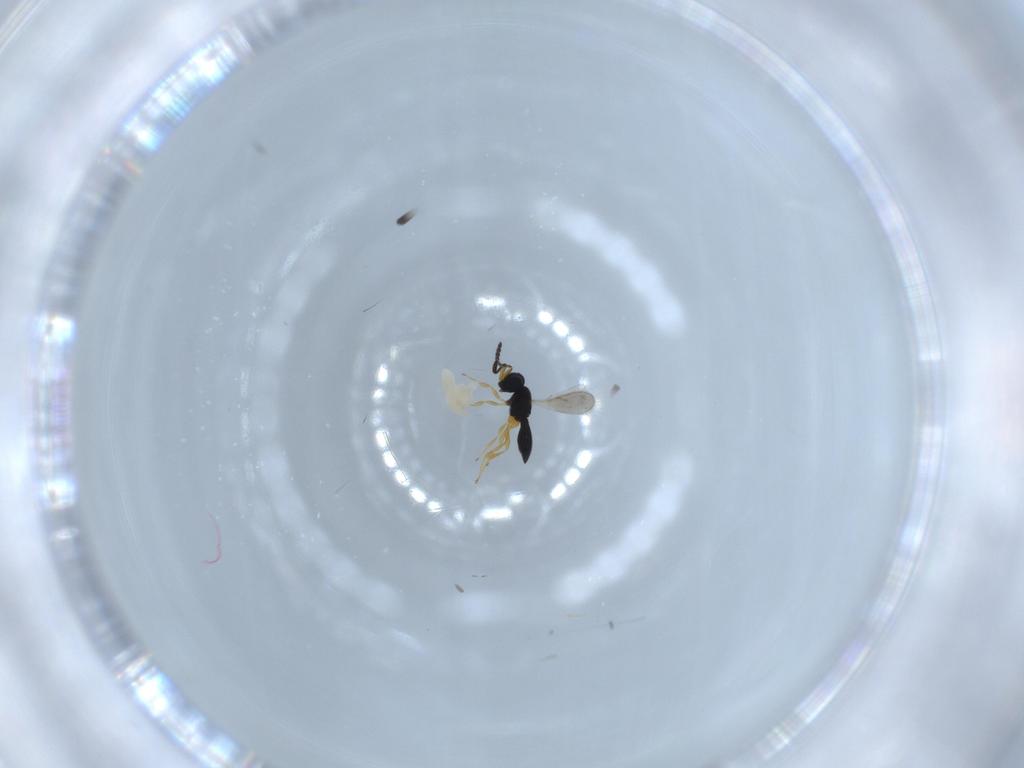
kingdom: Animalia
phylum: Arthropoda
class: Insecta
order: Hymenoptera
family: Scelionidae
